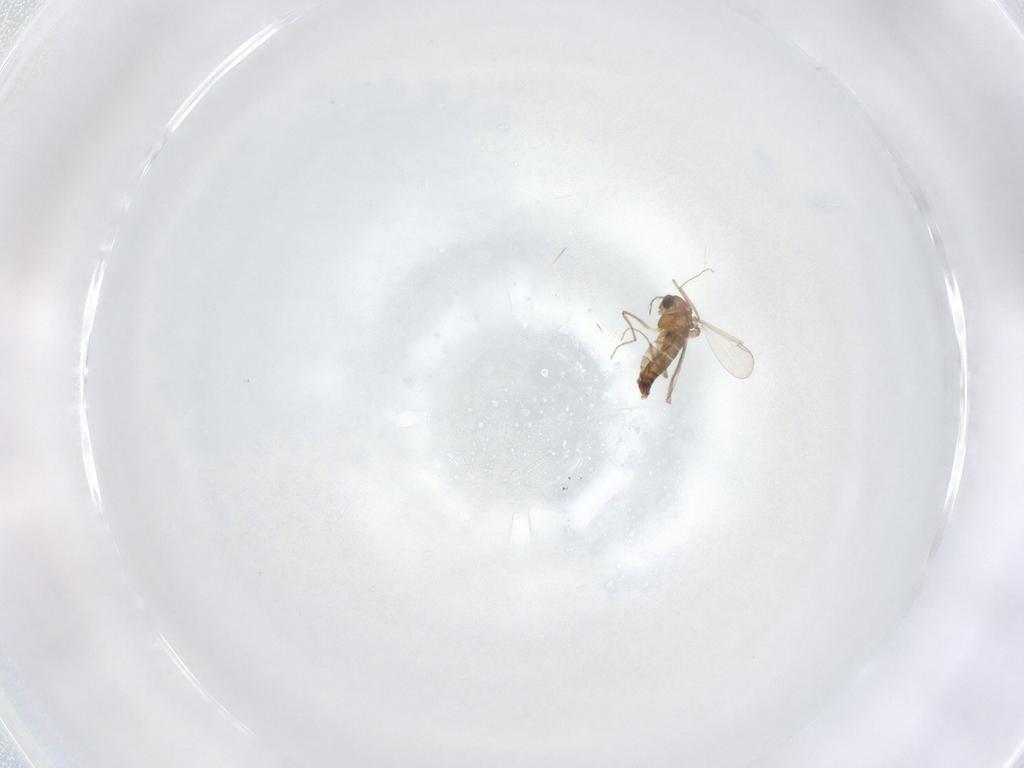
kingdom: Animalia
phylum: Arthropoda
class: Insecta
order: Diptera
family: Chironomidae
